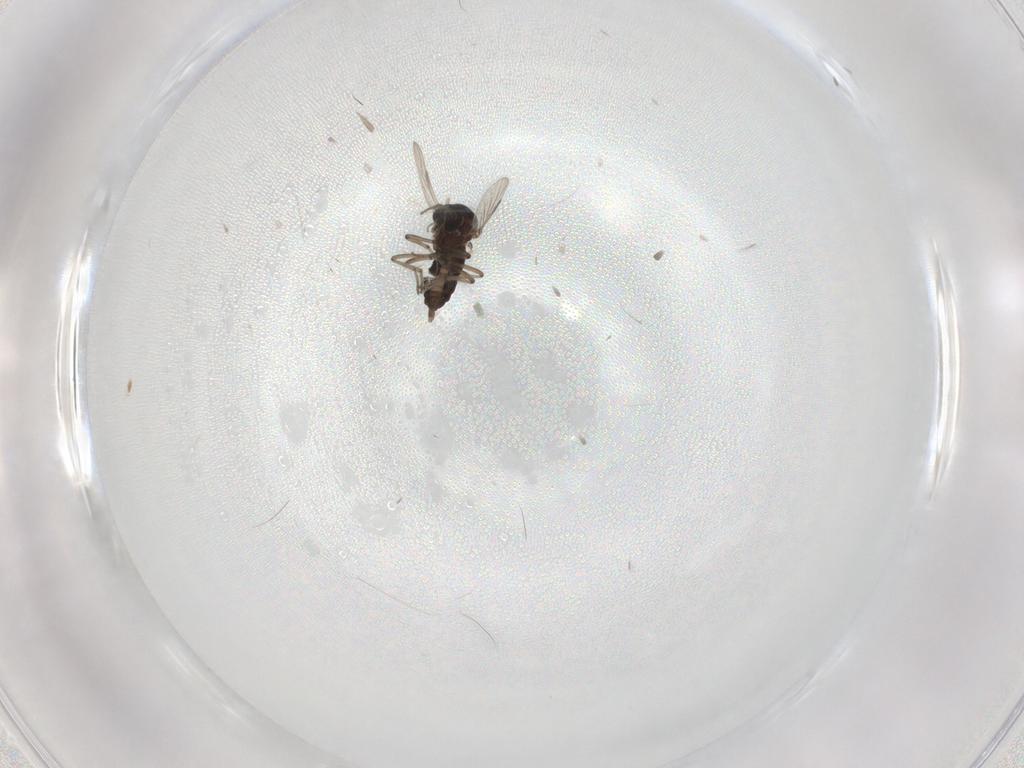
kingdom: Animalia
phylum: Arthropoda
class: Insecta
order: Diptera
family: Ceratopogonidae
